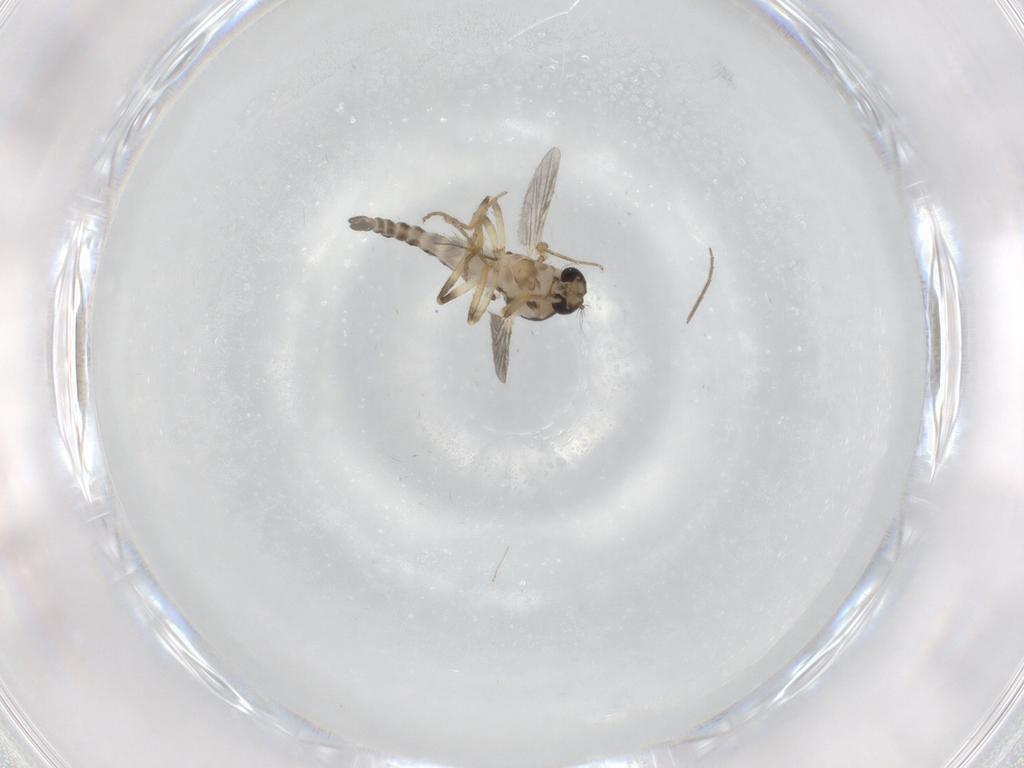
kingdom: Animalia
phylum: Arthropoda
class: Insecta
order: Diptera
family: Ceratopogonidae
